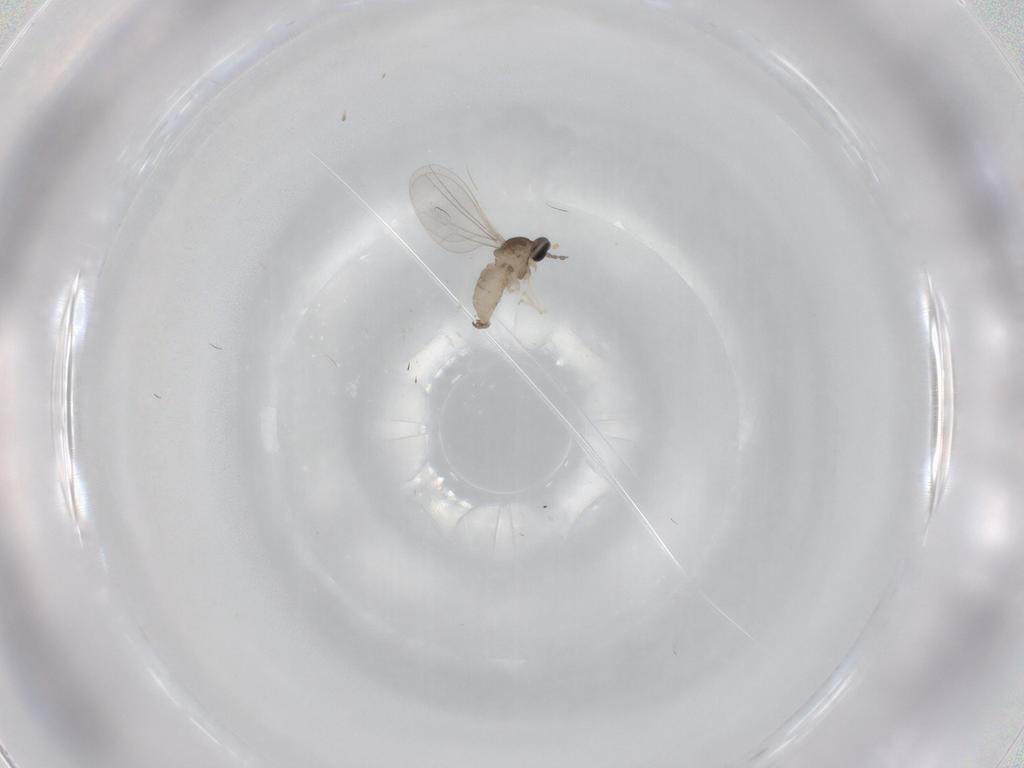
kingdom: Animalia
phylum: Arthropoda
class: Insecta
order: Diptera
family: Cecidomyiidae
